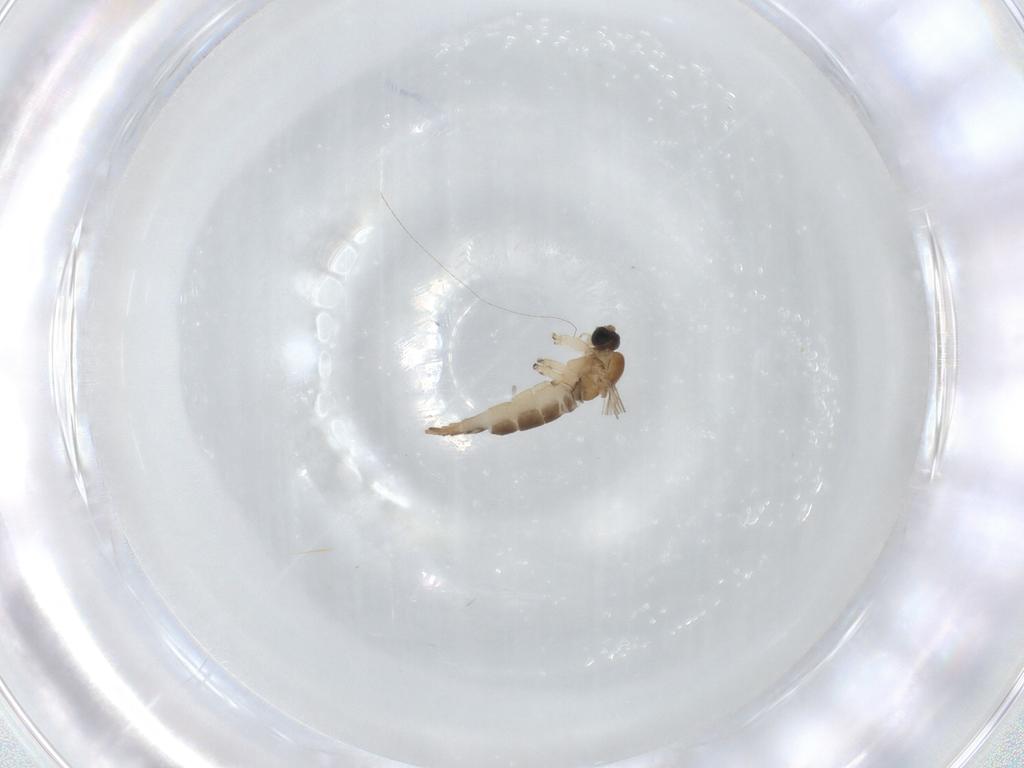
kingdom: Animalia
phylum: Arthropoda
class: Insecta
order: Diptera
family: Sciaridae
